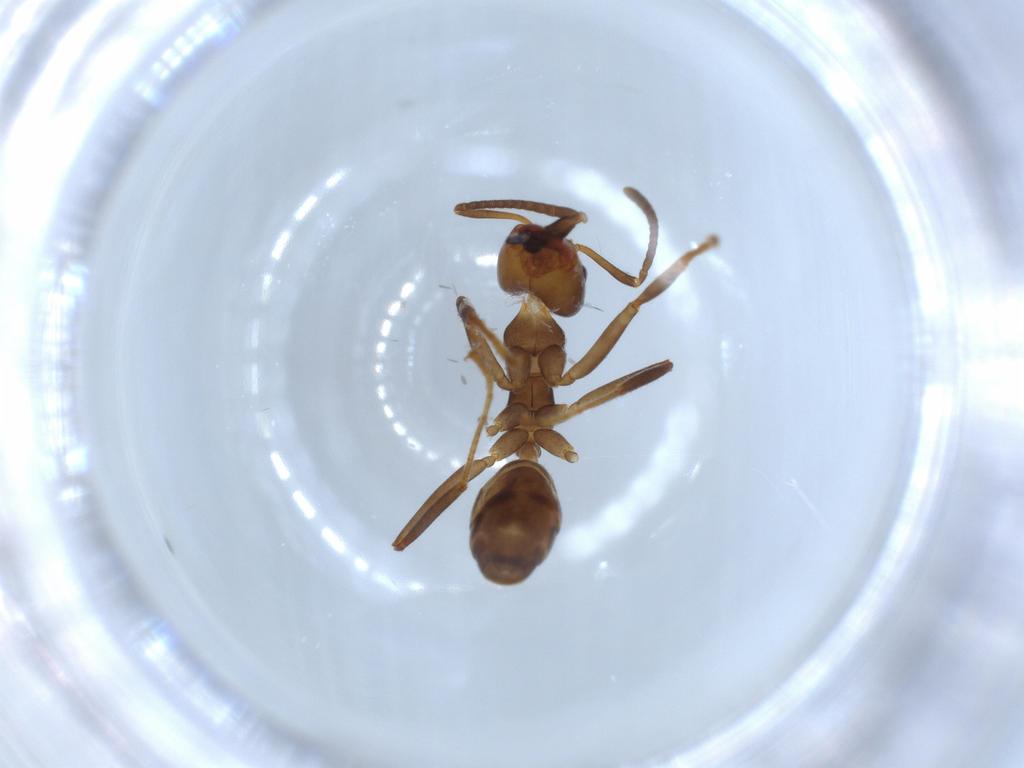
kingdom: Animalia
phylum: Arthropoda
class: Insecta
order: Hymenoptera
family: Formicidae
